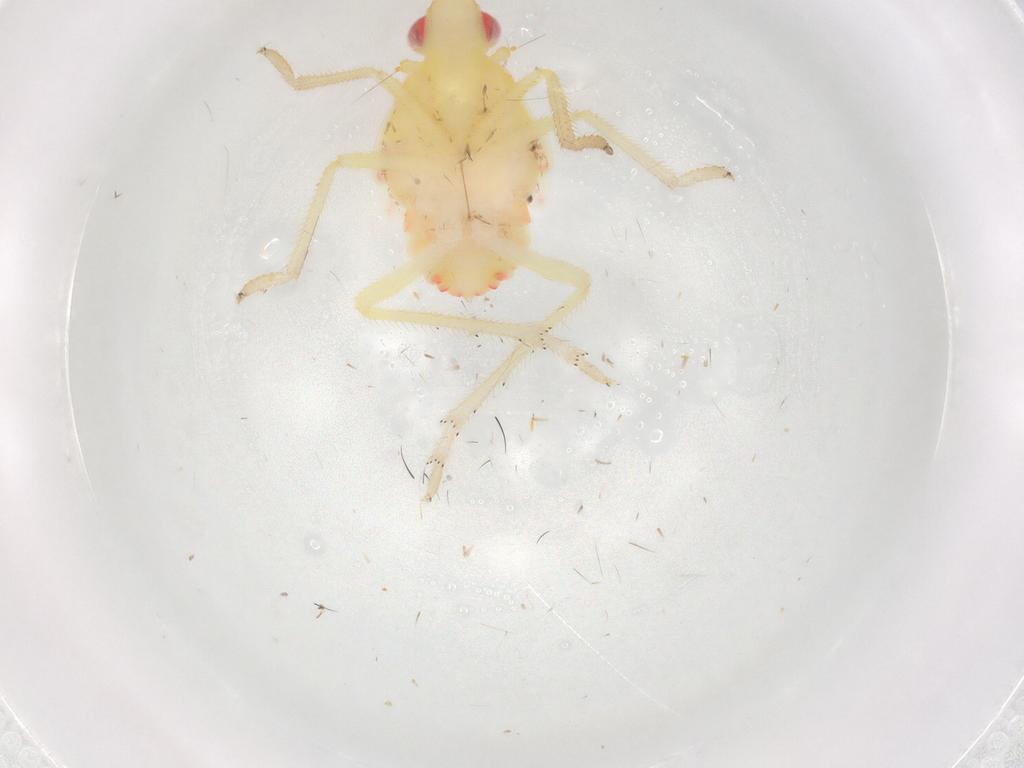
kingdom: Animalia
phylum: Arthropoda
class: Insecta
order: Hemiptera
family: Tropiduchidae
